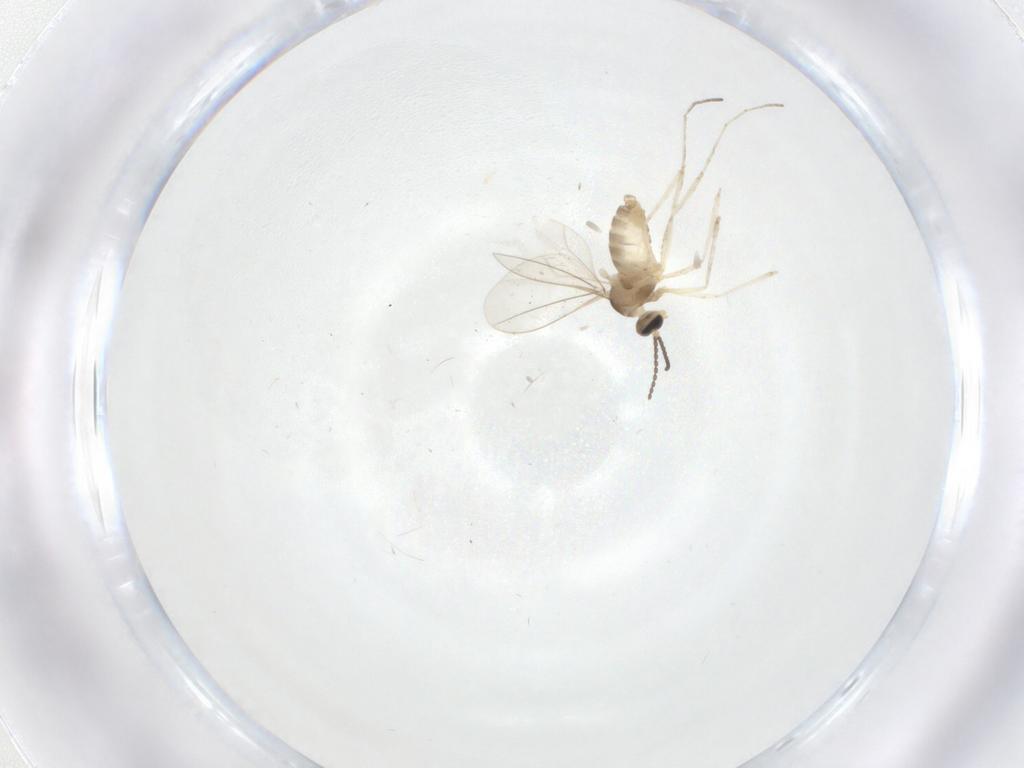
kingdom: Animalia
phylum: Arthropoda
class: Insecta
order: Diptera
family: Cecidomyiidae
